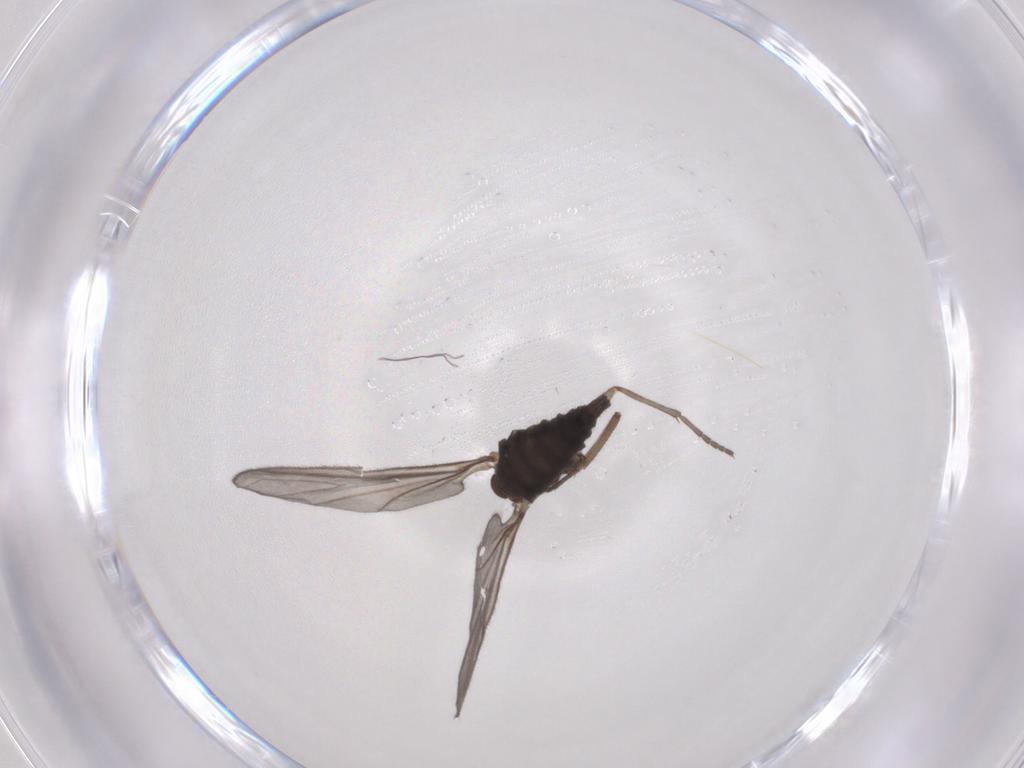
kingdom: Animalia
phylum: Arthropoda
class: Insecta
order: Diptera
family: Sciaridae
